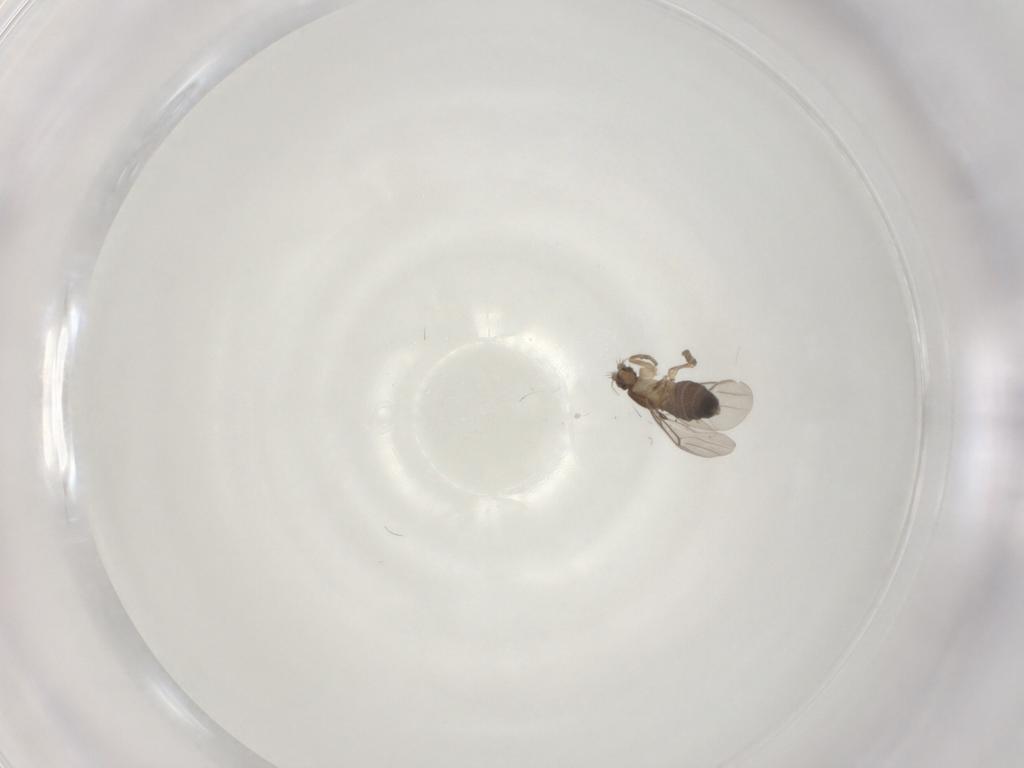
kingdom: Animalia
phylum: Arthropoda
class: Insecta
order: Diptera
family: Phoridae
